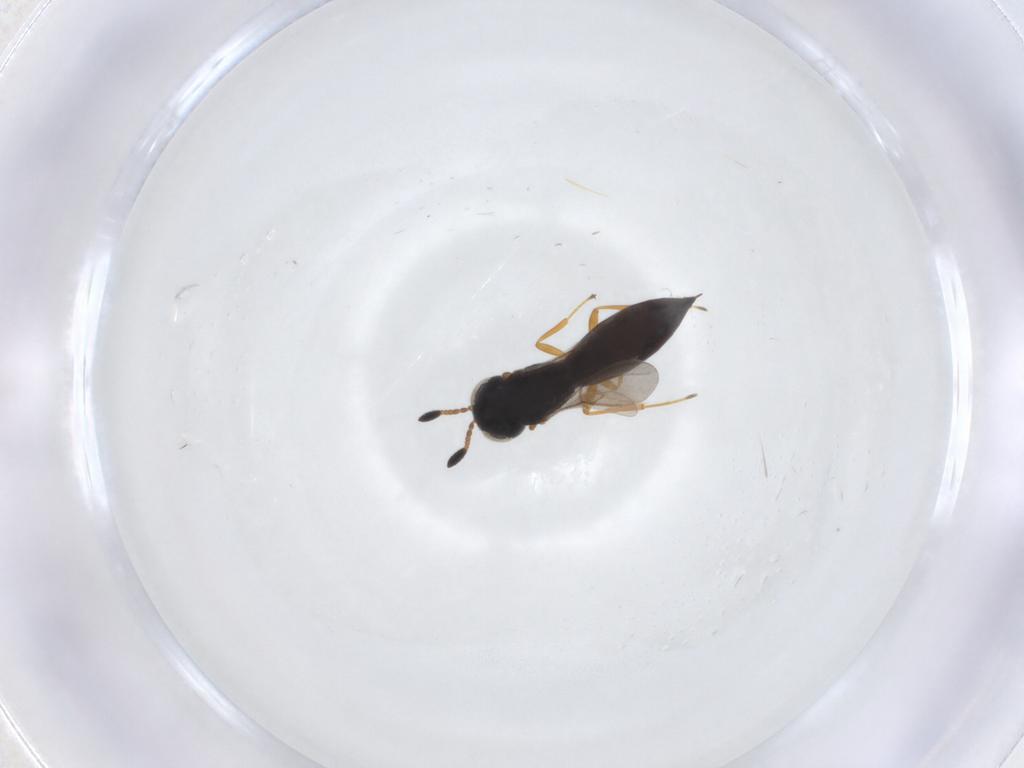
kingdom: Animalia
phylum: Arthropoda
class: Insecta
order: Hymenoptera
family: Scelionidae
